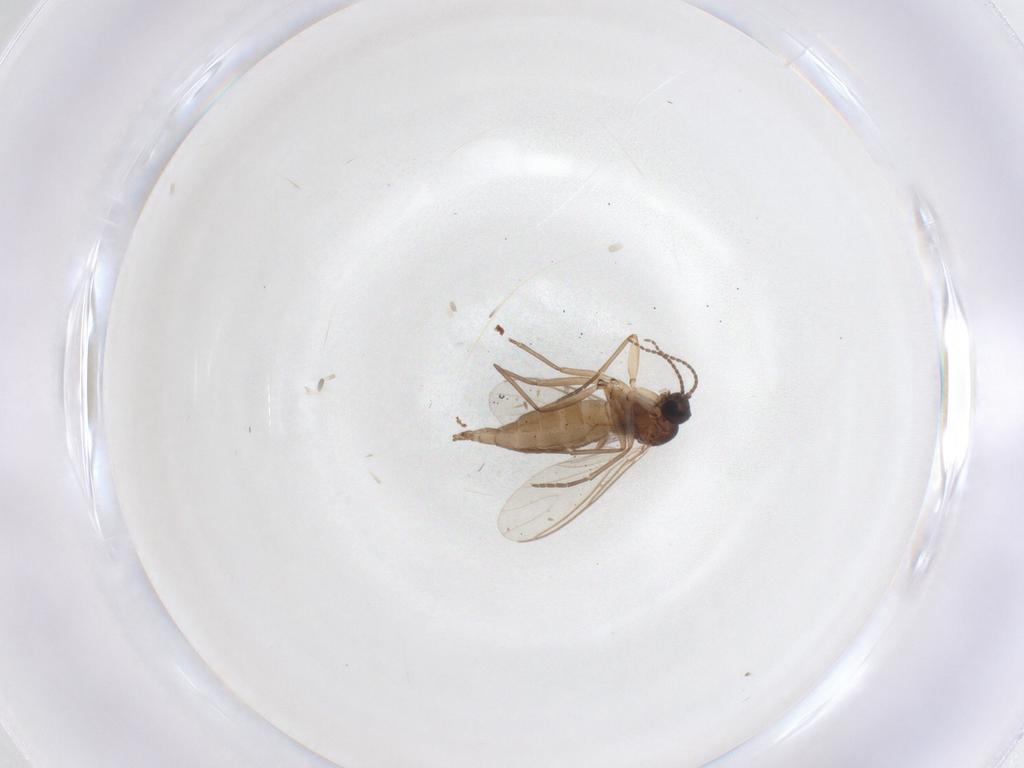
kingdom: Animalia
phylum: Arthropoda
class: Insecta
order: Diptera
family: Sciaridae
